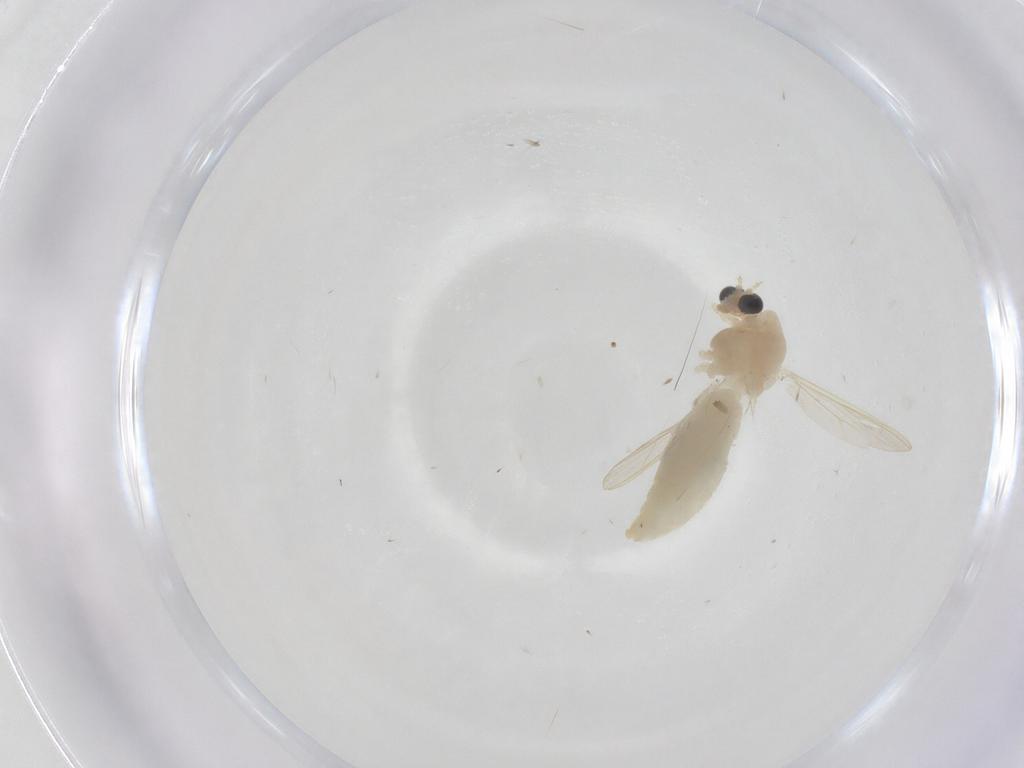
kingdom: Animalia
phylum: Arthropoda
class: Insecta
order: Diptera
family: Chironomidae
